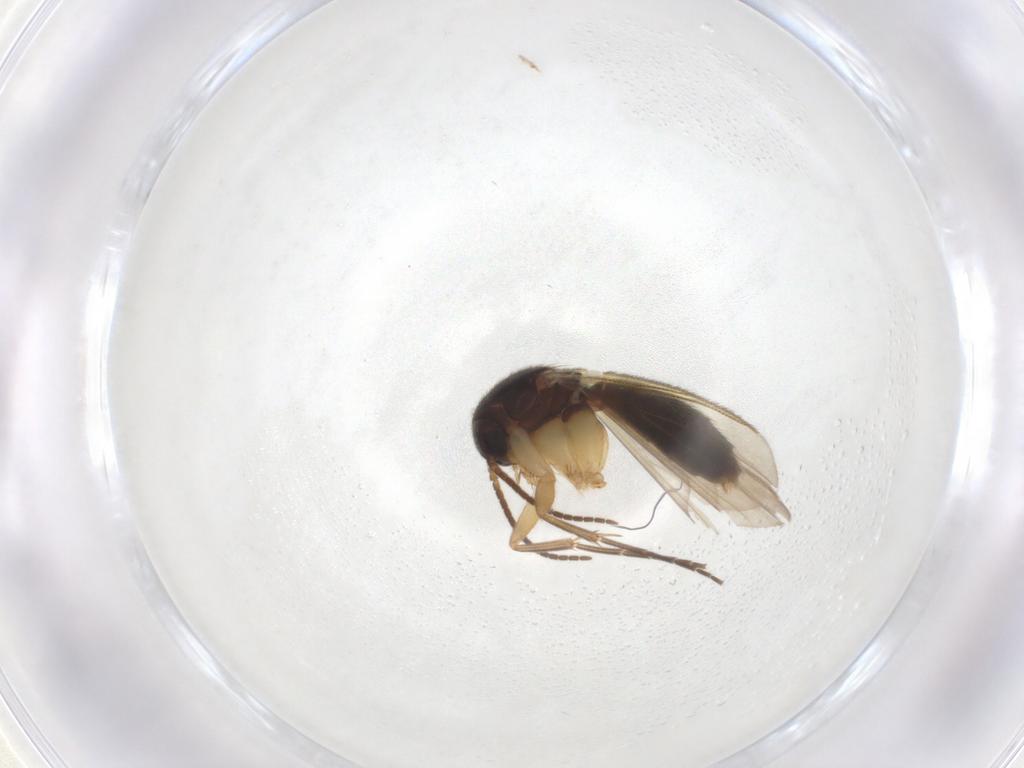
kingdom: Animalia
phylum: Arthropoda
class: Insecta
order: Diptera
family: Mycetophilidae
